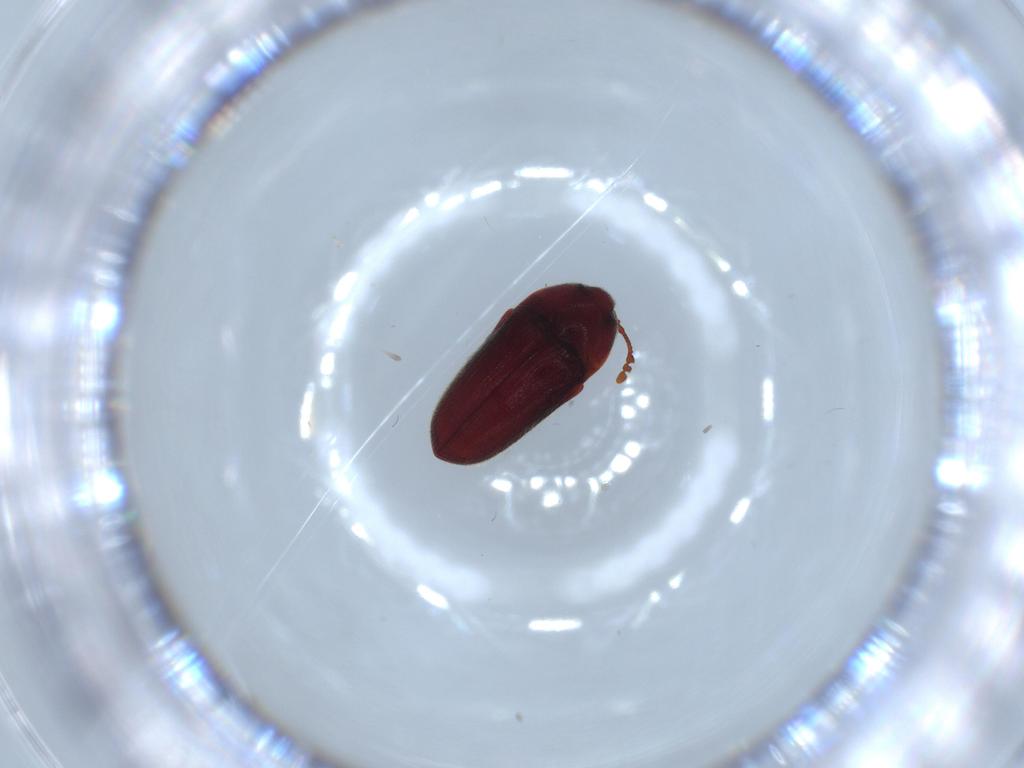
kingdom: Animalia
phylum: Arthropoda
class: Insecta
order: Coleoptera
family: Throscidae
